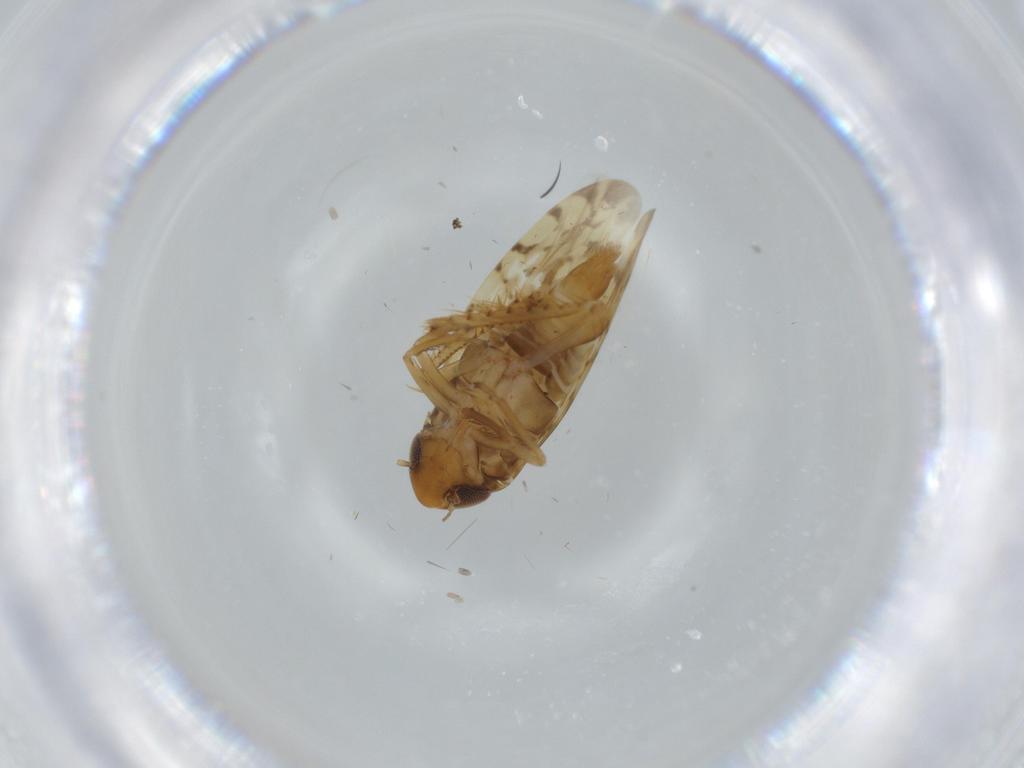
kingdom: Animalia
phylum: Arthropoda
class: Insecta
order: Hemiptera
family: Cicadellidae
